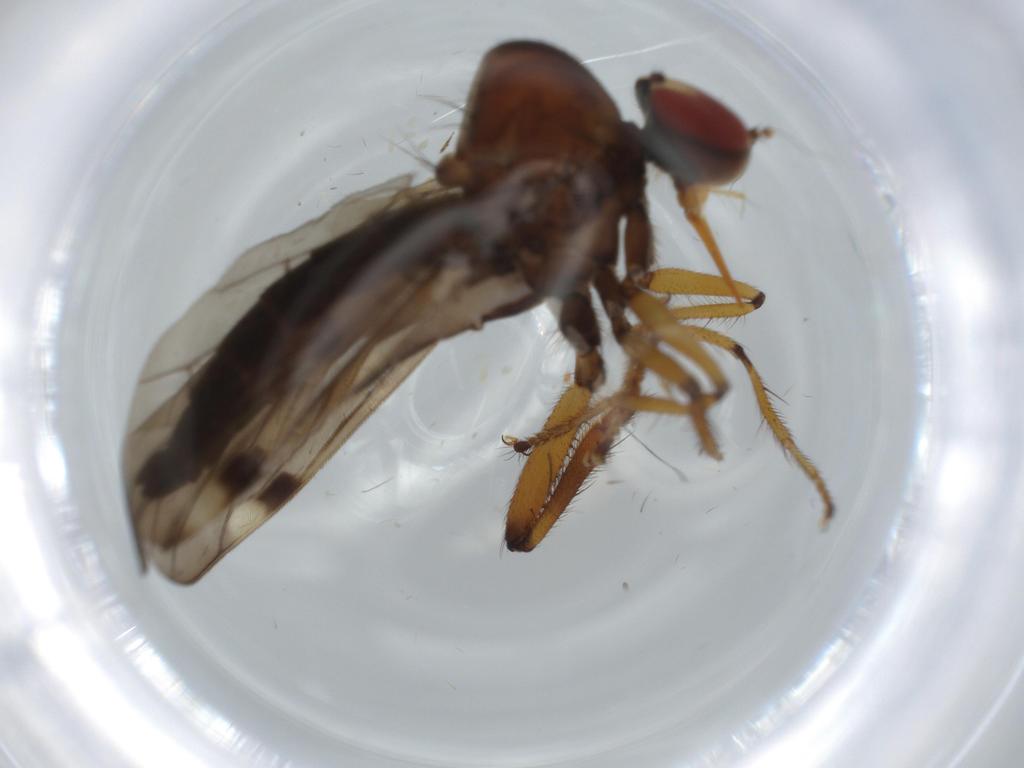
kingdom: Animalia
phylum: Arthropoda
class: Insecta
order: Diptera
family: Hybotidae
